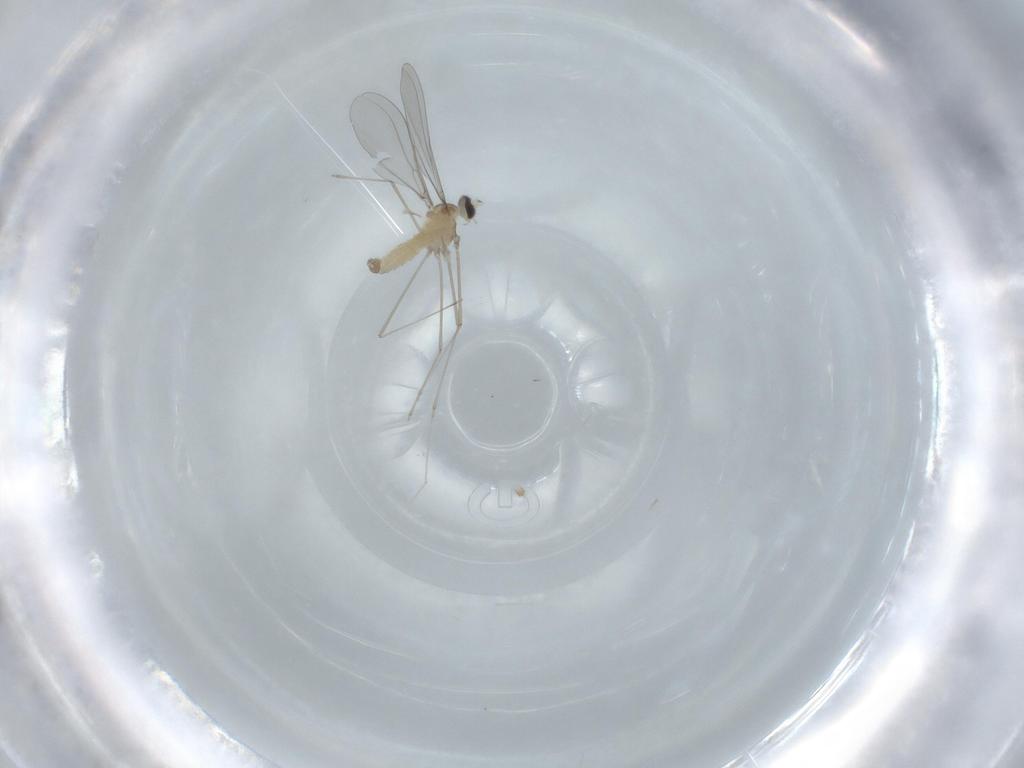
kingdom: Animalia
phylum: Arthropoda
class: Insecta
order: Diptera
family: Cecidomyiidae
